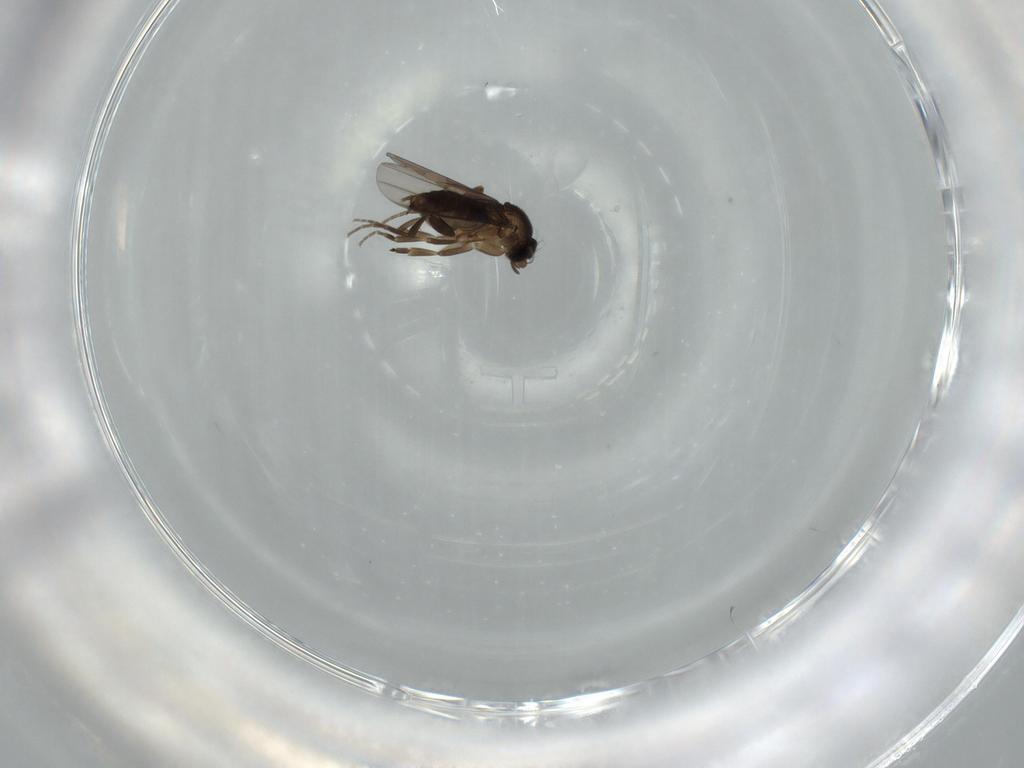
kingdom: Animalia
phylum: Arthropoda
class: Insecta
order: Diptera
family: Phoridae
